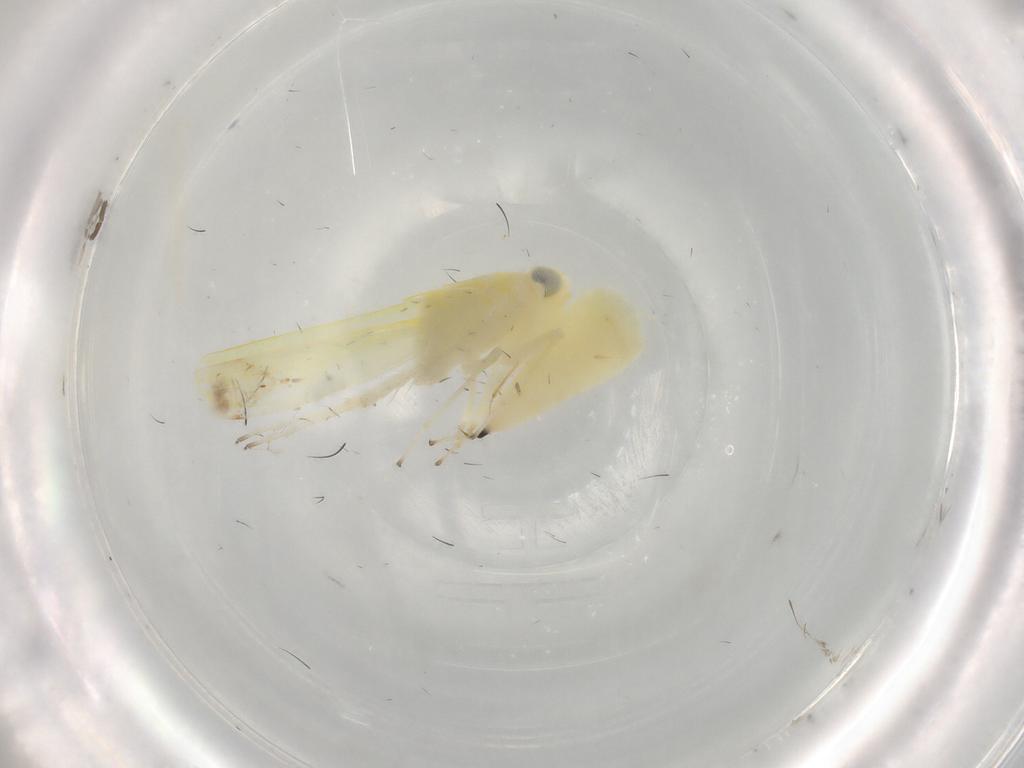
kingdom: Animalia
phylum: Arthropoda
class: Insecta
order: Hemiptera
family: Cicadellidae
